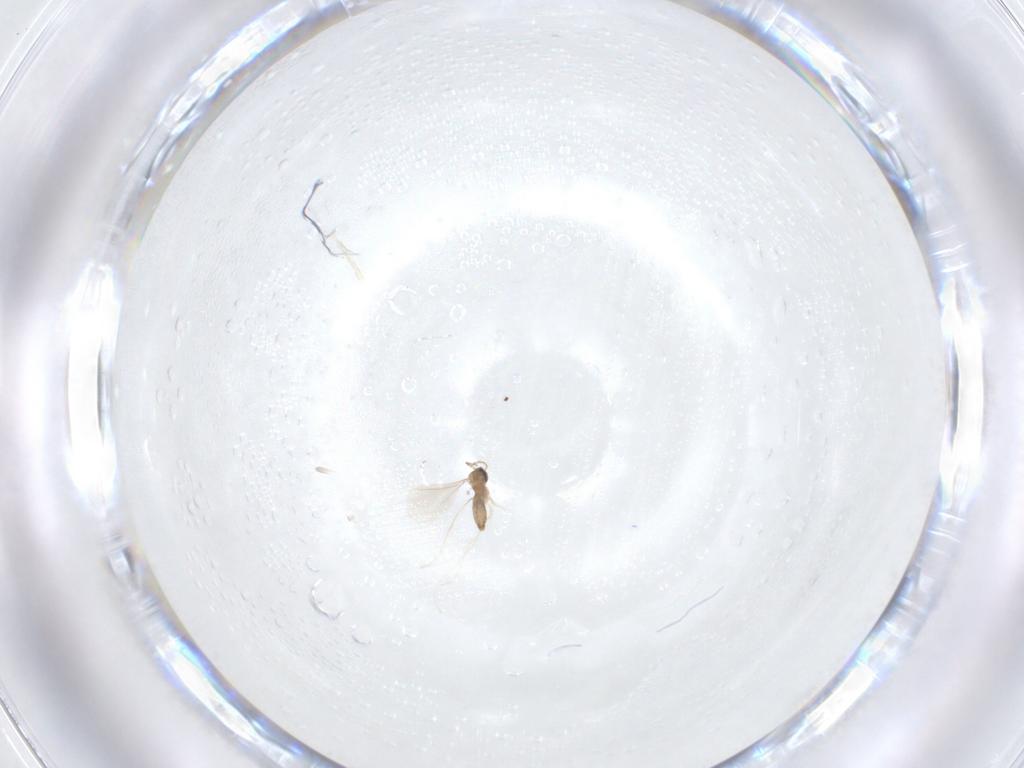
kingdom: Animalia
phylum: Arthropoda
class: Insecta
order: Diptera
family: Cecidomyiidae
